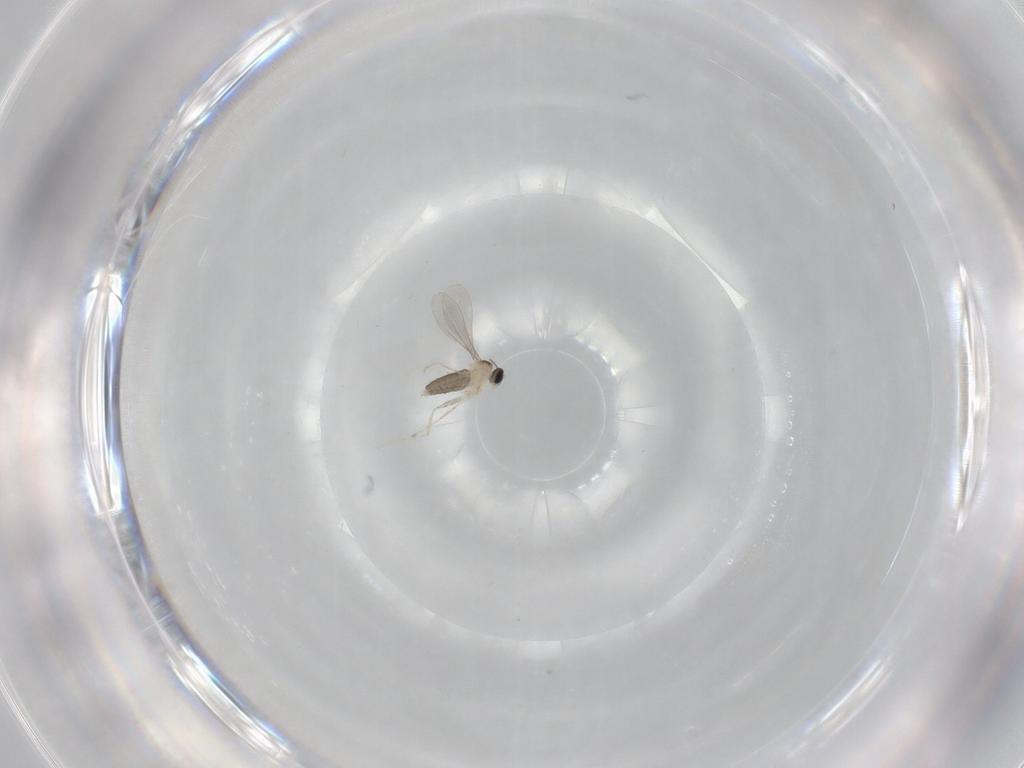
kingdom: Animalia
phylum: Arthropoda
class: Insecta
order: Diptera
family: Cecidomyiidae
